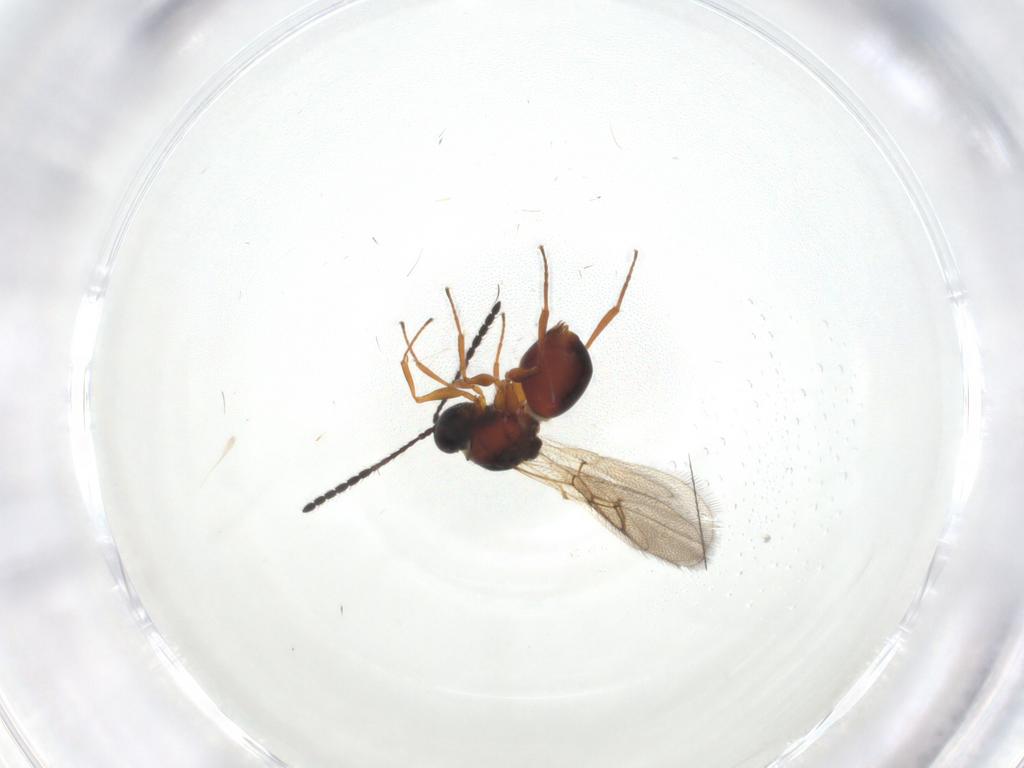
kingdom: Animalia
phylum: Arthropoda
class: Insecta
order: Hymenoptera
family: Figitidae
